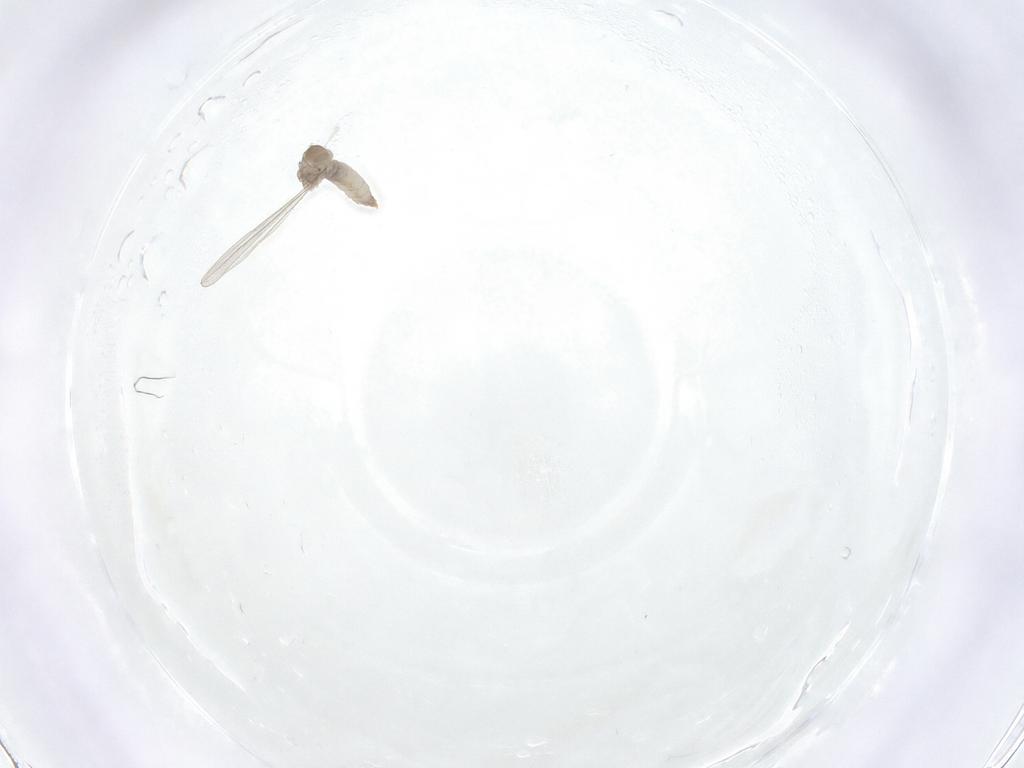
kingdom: Animalia
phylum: Arthropoda
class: Insecta
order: Diptera
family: Cecidomyiidae
